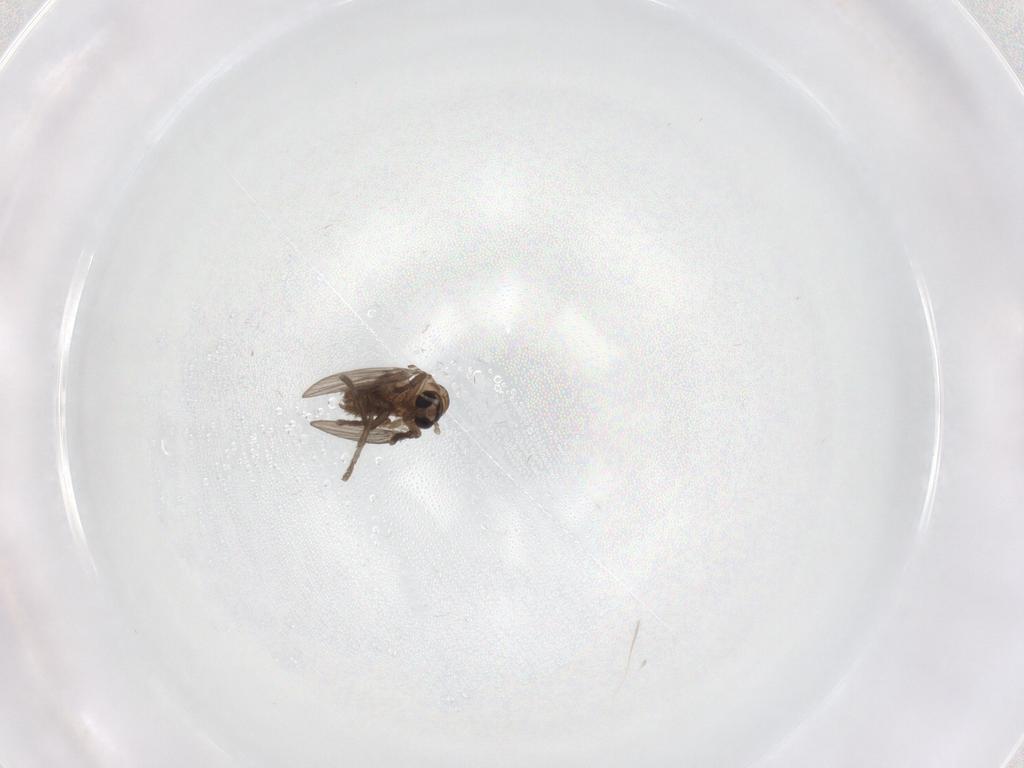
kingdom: Animalia
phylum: Arthropoda
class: Insecta
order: Diptera
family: Psychodidae
